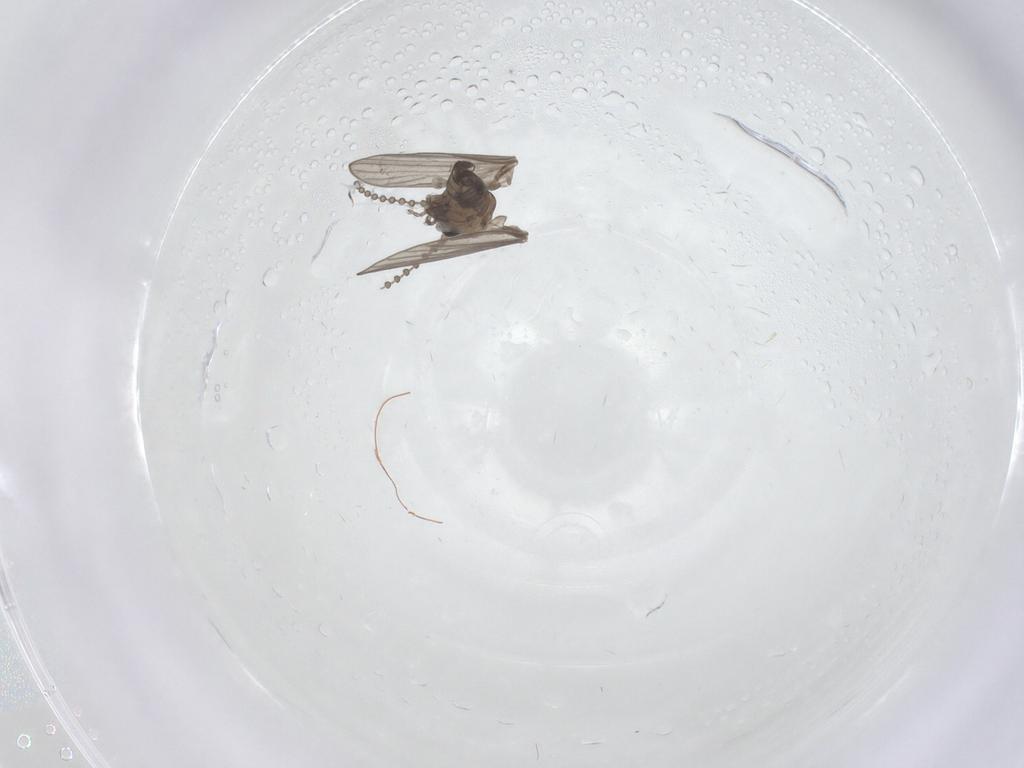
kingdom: Animalia
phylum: Arthropoda
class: Insecta
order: Diptera
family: Psychodidae
